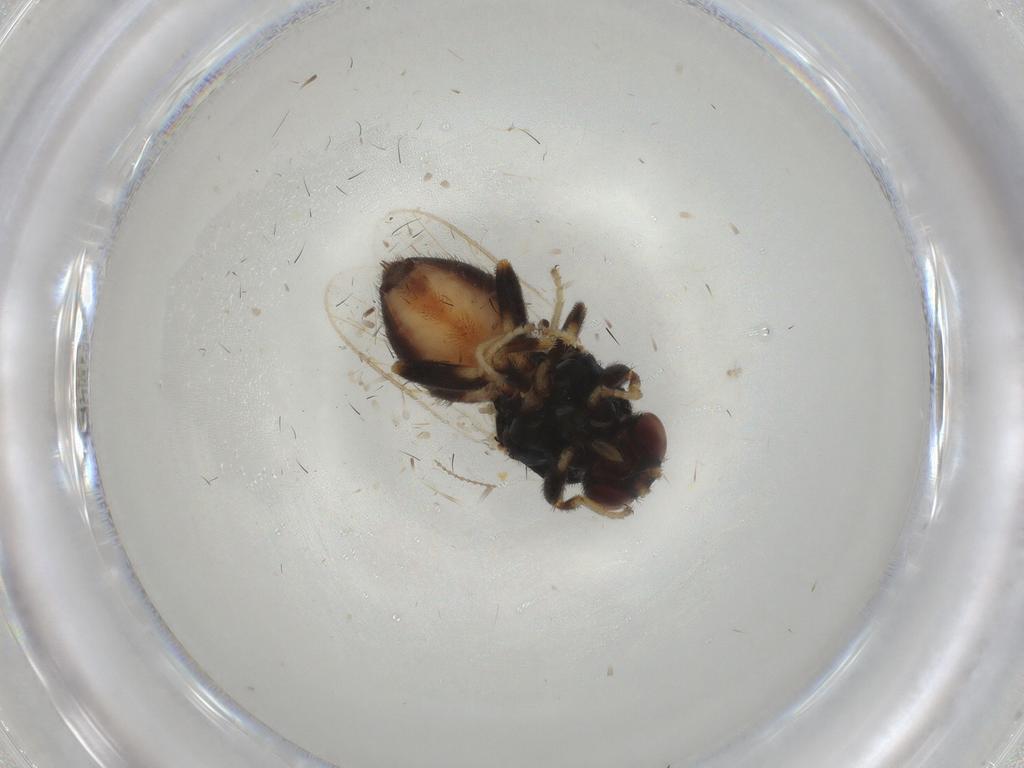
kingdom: Animalia
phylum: Arthropoda
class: Insecta
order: Diptera
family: Chloropidae
